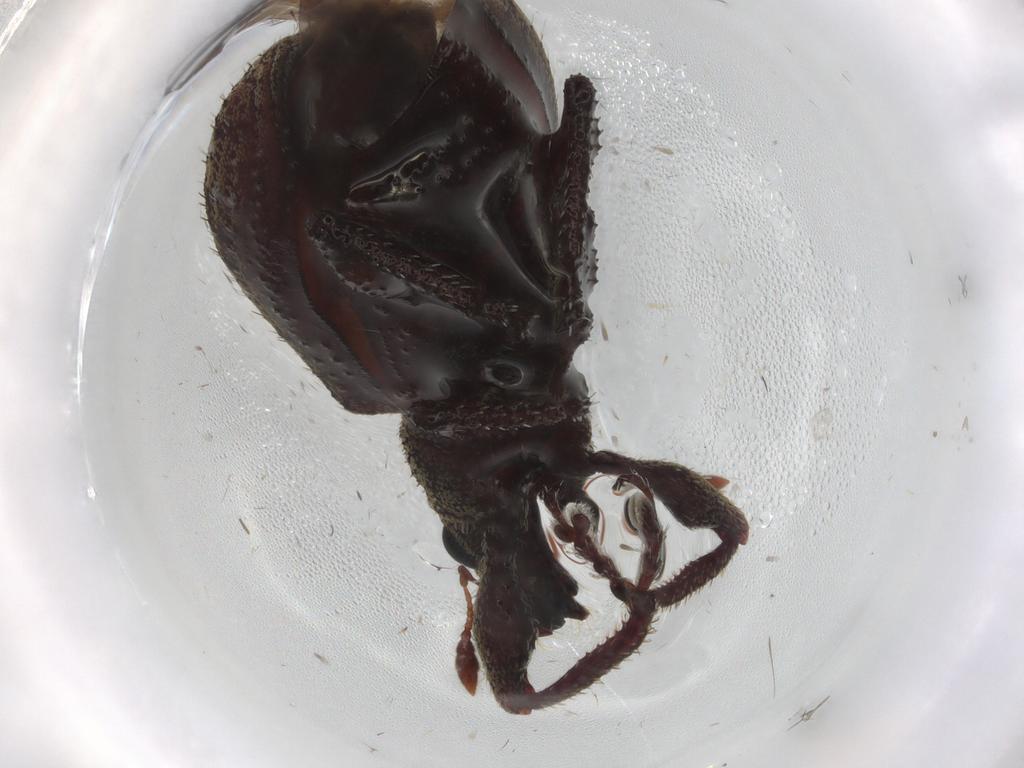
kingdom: Animalia
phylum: Arthropoda
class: Insecta
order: Coleoptera
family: Curculionidae
